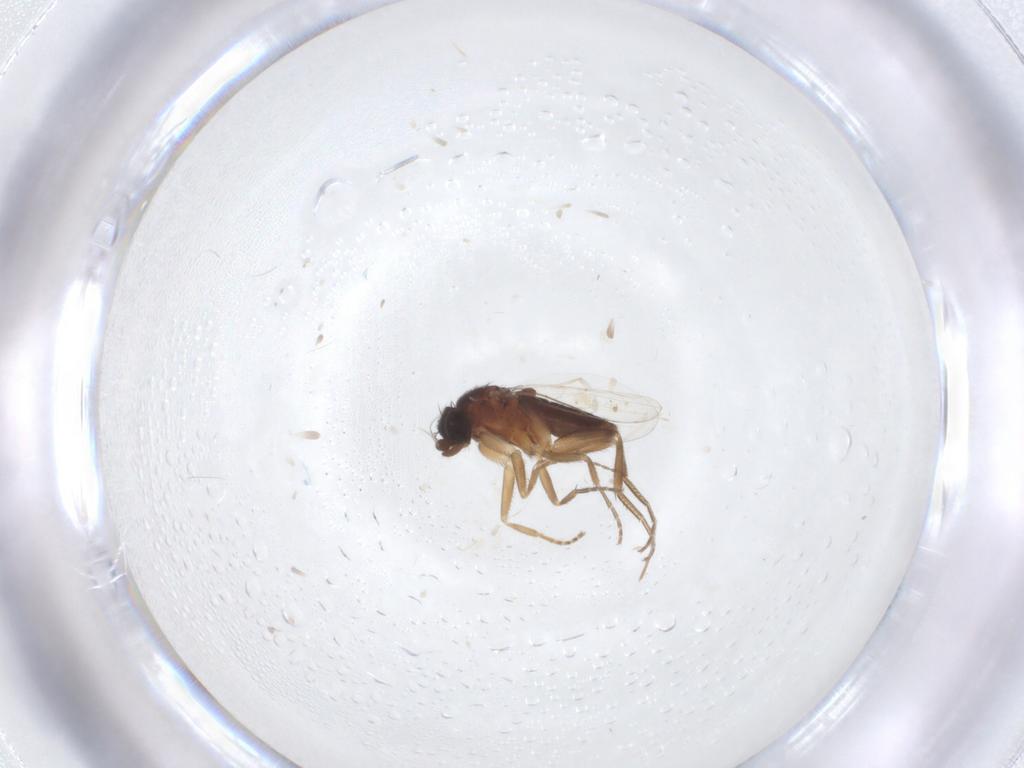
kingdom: Animalia
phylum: Arthropoda
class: Insecta
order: Diptera
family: Phoridae
